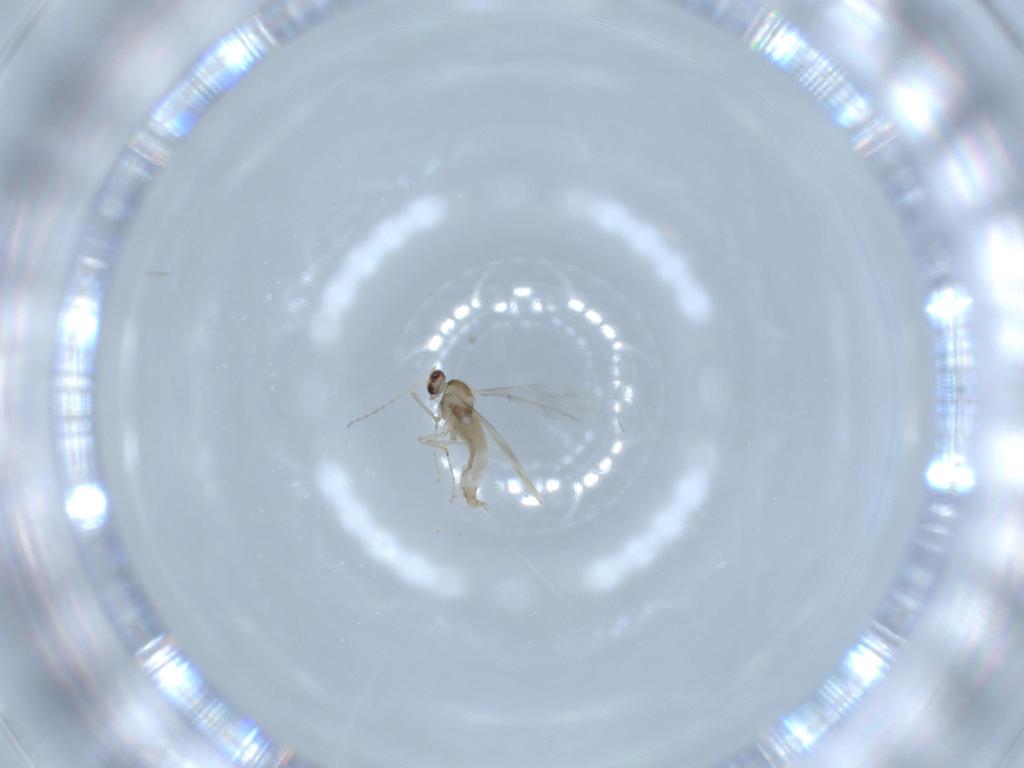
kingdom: Animalia
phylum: Arthropoda
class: Insecta
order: Diptera
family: Cecidomyiidae
